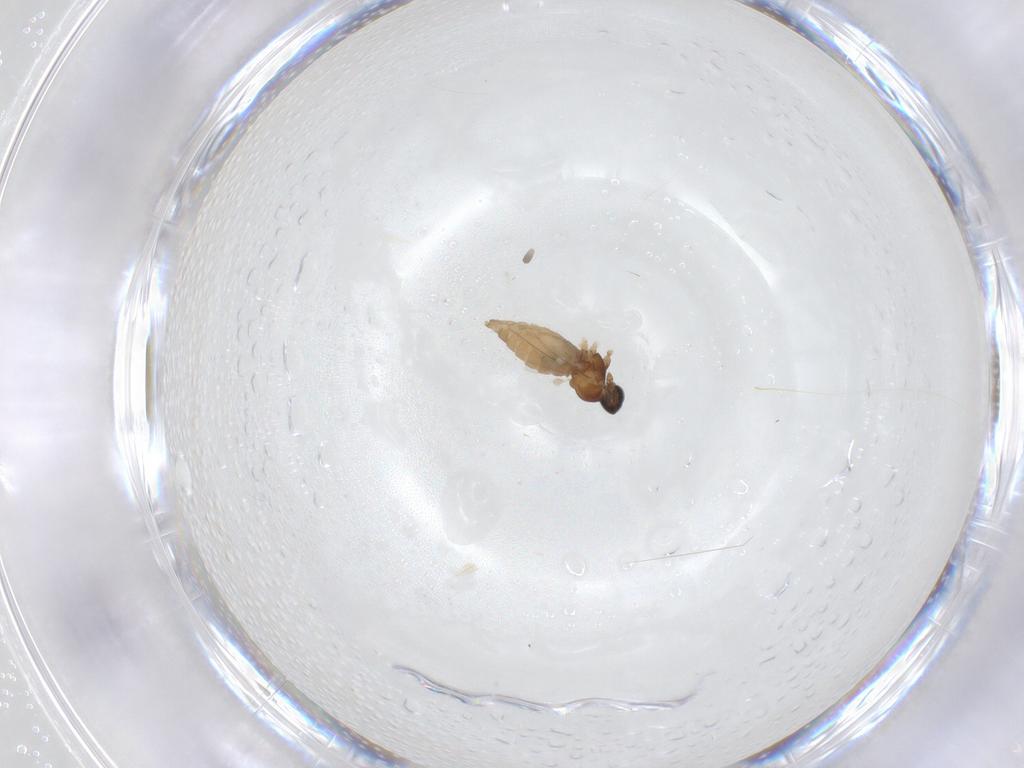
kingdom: Animalia
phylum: Arthropoda
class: Insecta
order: Diptera
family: Cecidomyiidae
